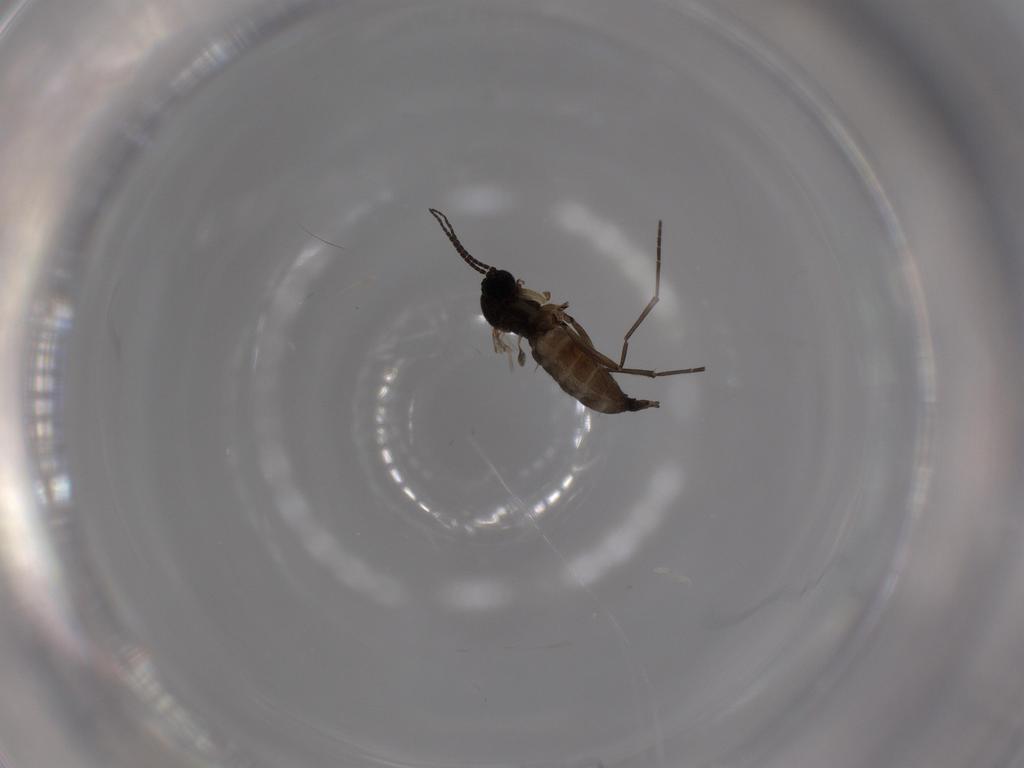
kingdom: Animalia
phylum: Arthropoda
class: Insecta
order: Diptera
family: Sciaridae
